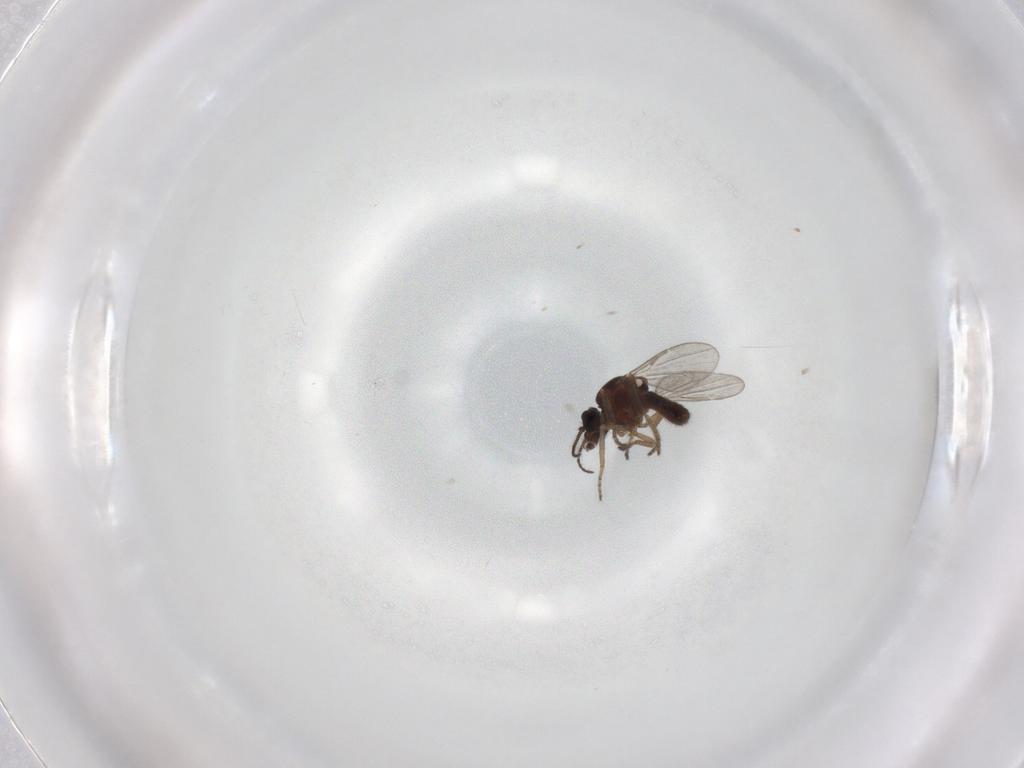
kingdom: Animalia
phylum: Arthropoda
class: Insecta
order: Diptera
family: Ceratopogonidae
